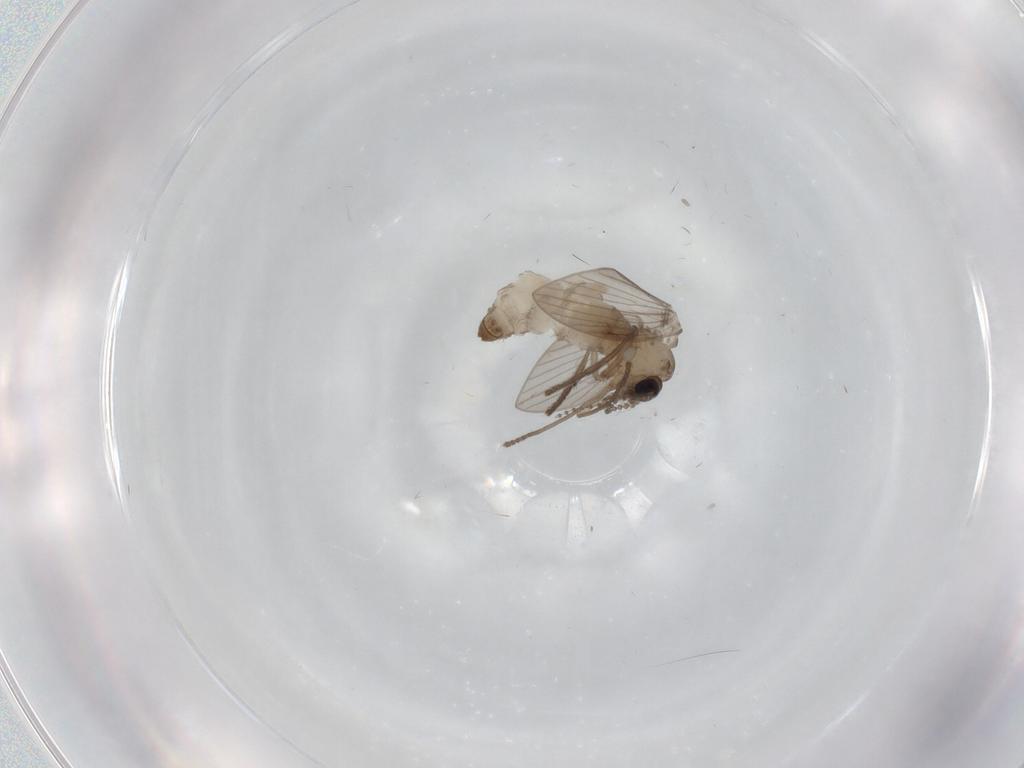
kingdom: Animalia
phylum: Arthropoda
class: Insecta
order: Diptera
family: Psychodidae
